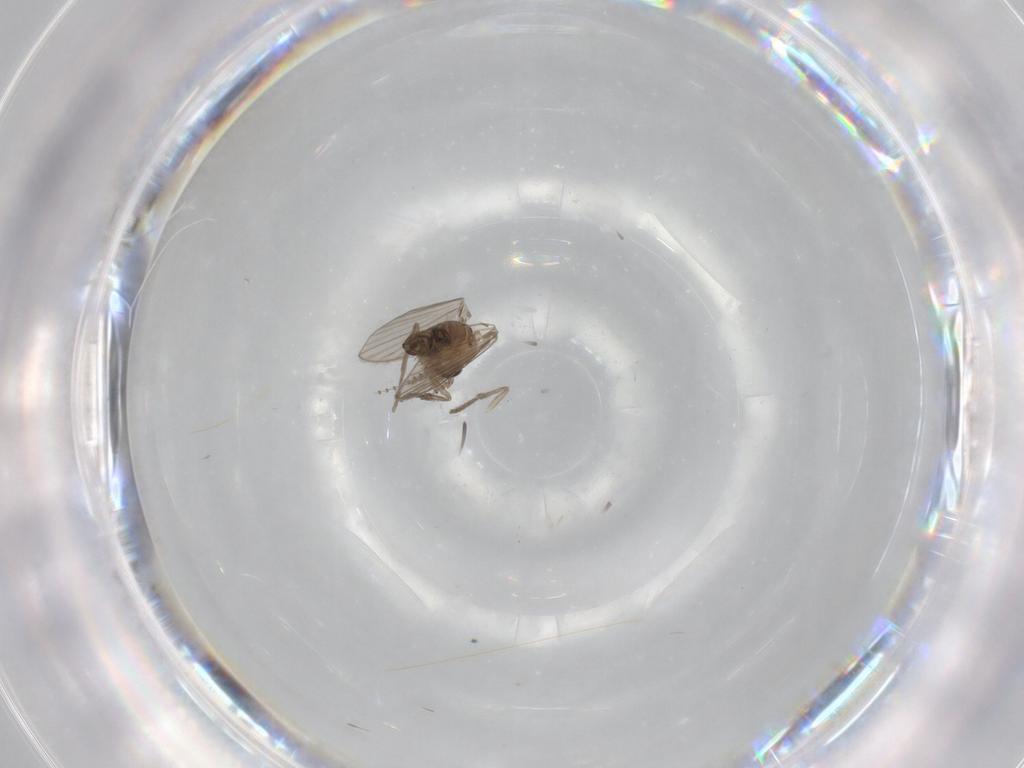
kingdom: Animalia
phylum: Arthropoda
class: Insecta
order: Diptera
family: Psychodidae
